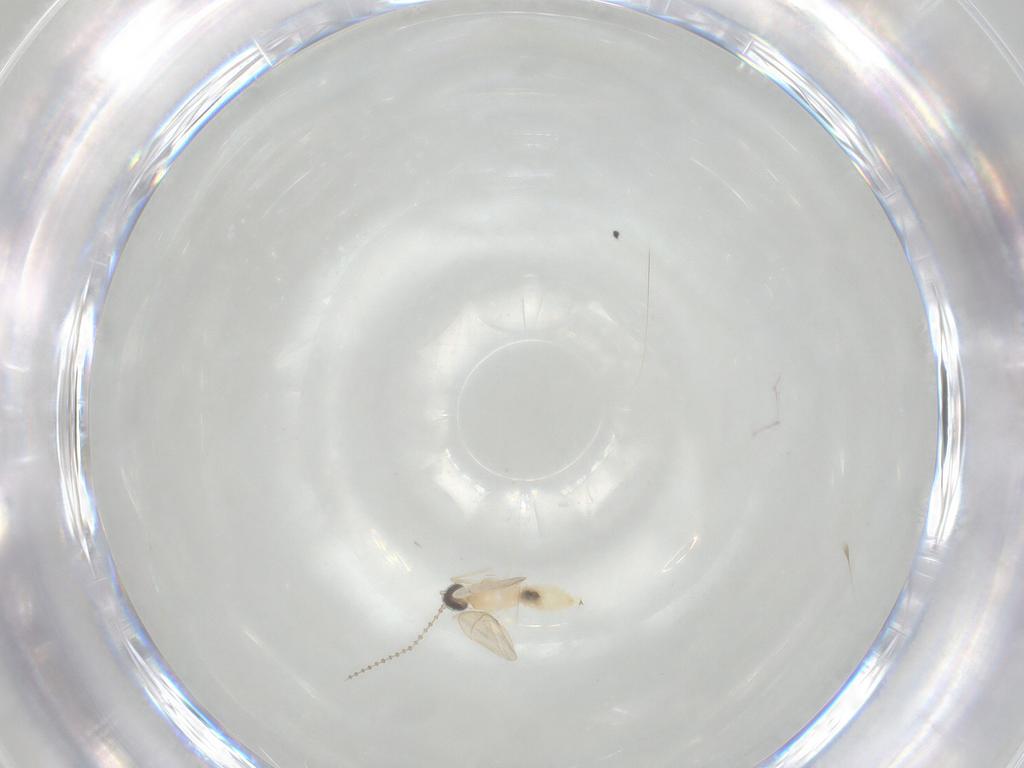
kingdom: Animalia
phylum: Arthropoda
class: Insecta
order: Diptera
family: Cecidomyiidae
